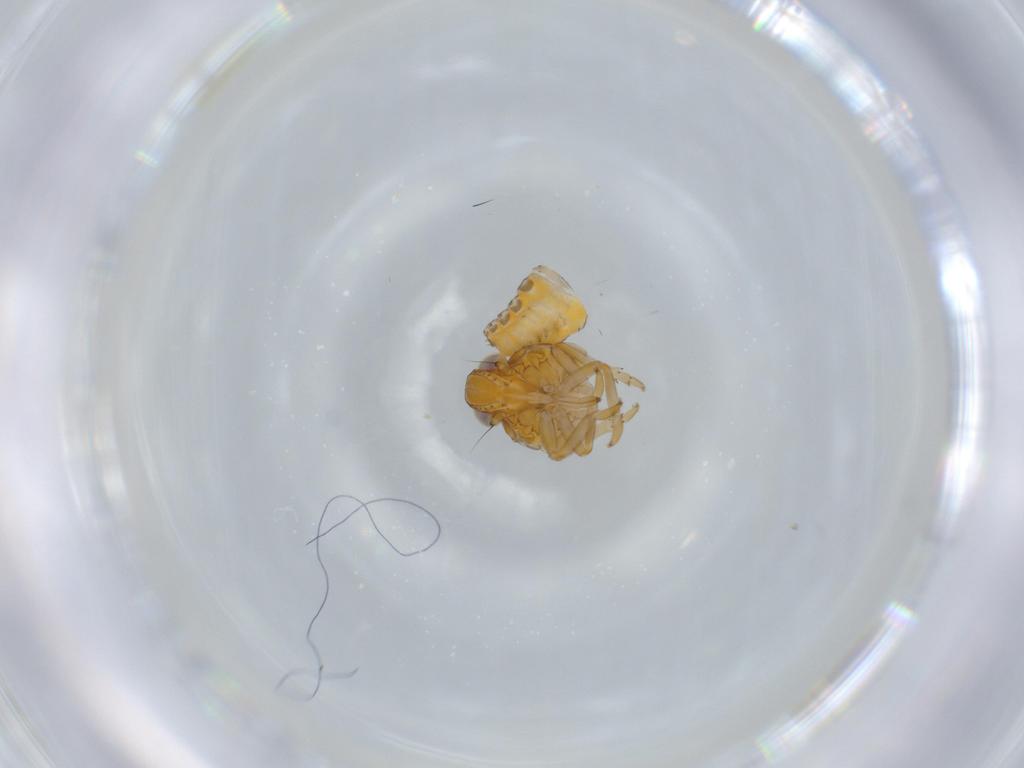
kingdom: Animalia
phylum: Arthropoda
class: Insecta
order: Hemiptera
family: Issidae
